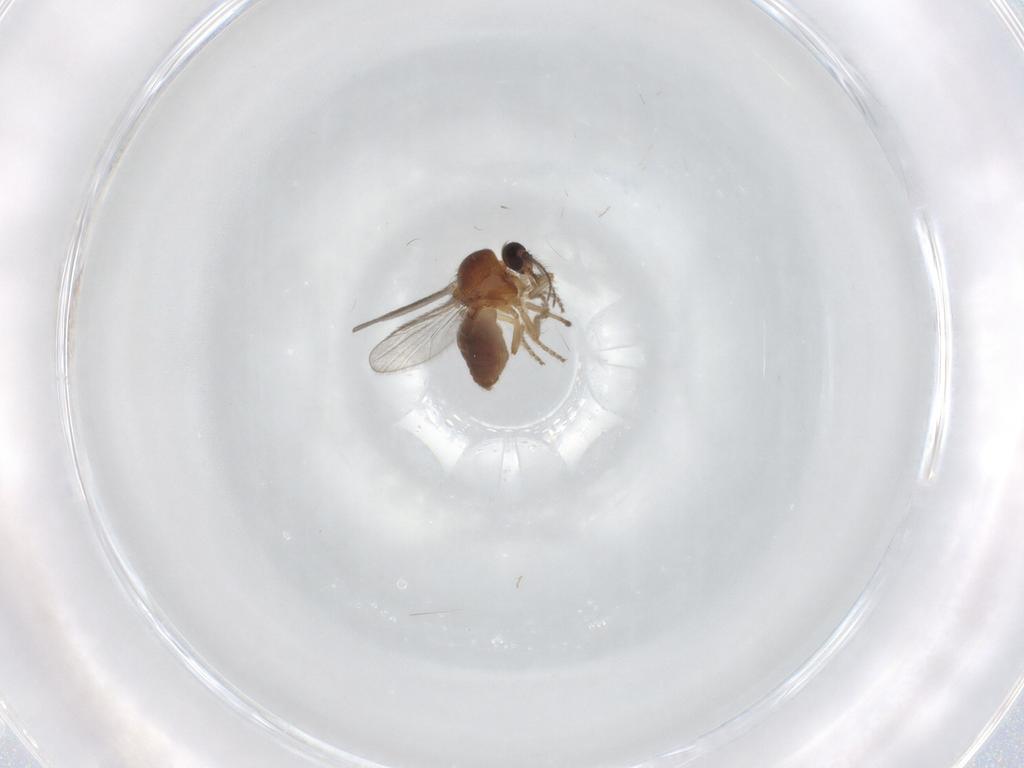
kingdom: Animalia
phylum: Arthropoda
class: Insecta
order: Diptera
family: Ceratopogonidae
